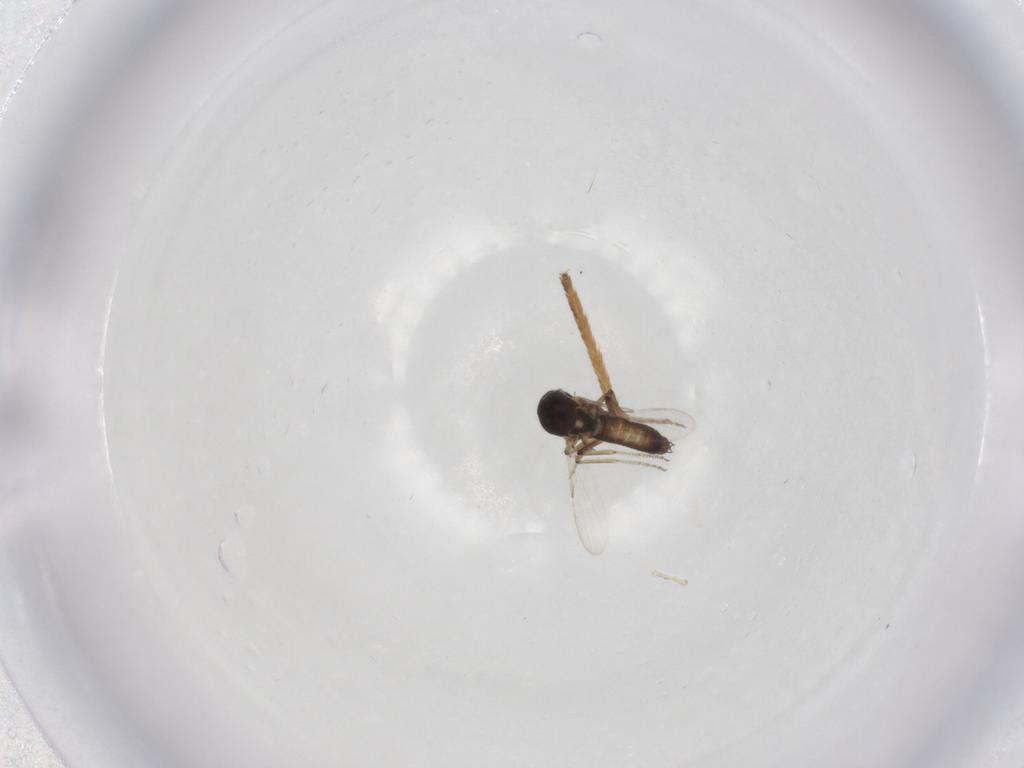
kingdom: Animalia
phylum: Arthropoda
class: Insecta
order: Diptera
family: Ceratopogonidae
